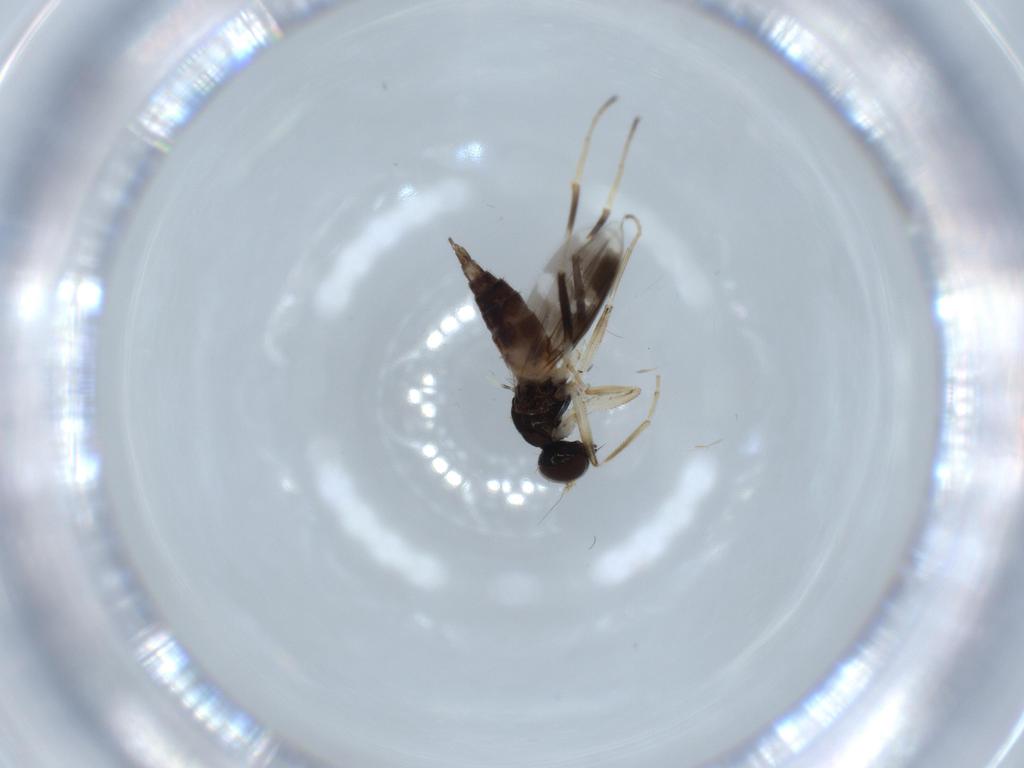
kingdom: Animalia
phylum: Arthropoda
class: Insecta
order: Diptera
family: Hybotidae
